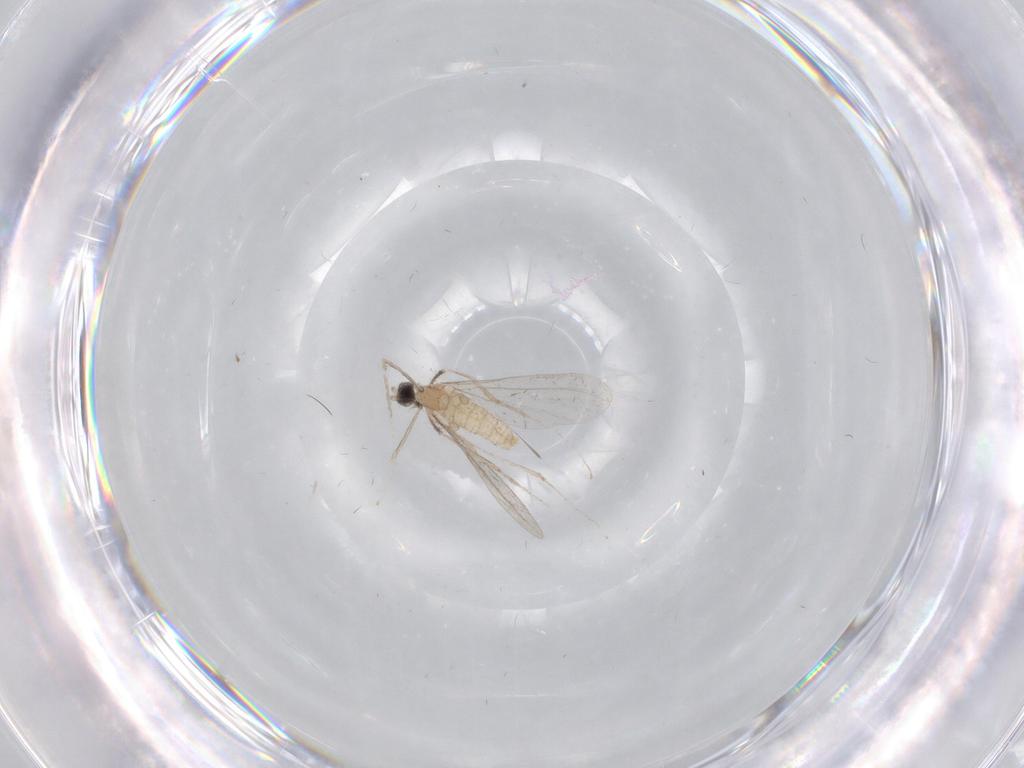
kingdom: Animalia
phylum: Arthropoda
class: Insecta
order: Diptera
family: Cecidomyiidae
